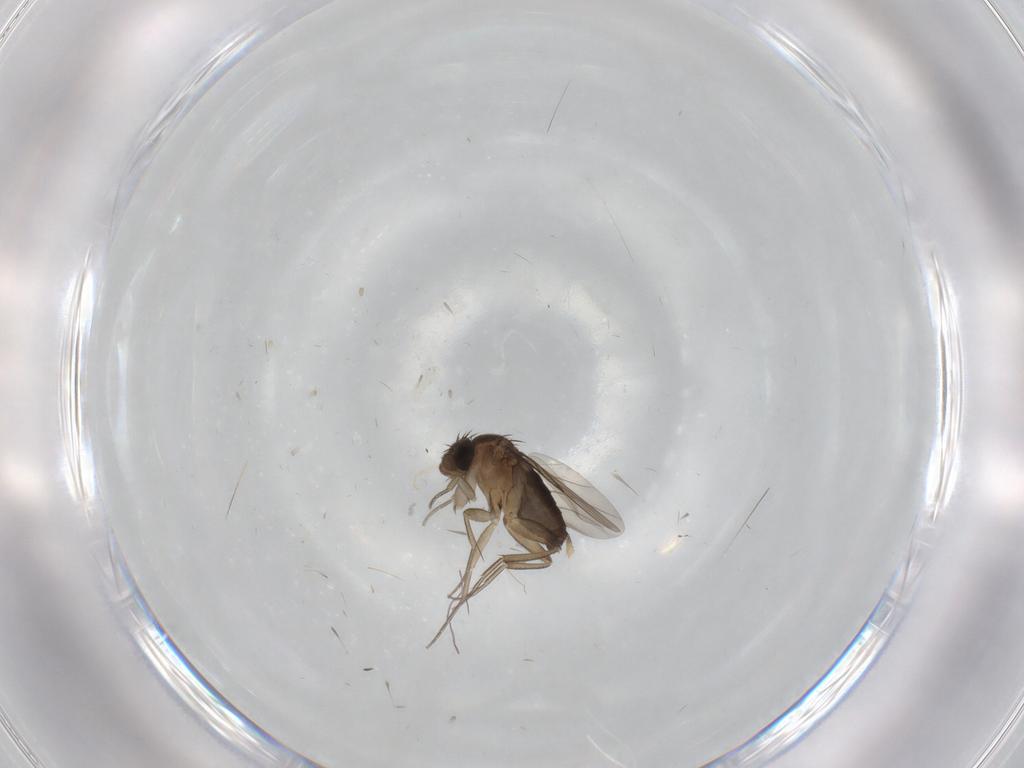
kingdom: Animalia
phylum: Arthropoda
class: Insecta
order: Diptera
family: Phoridae
